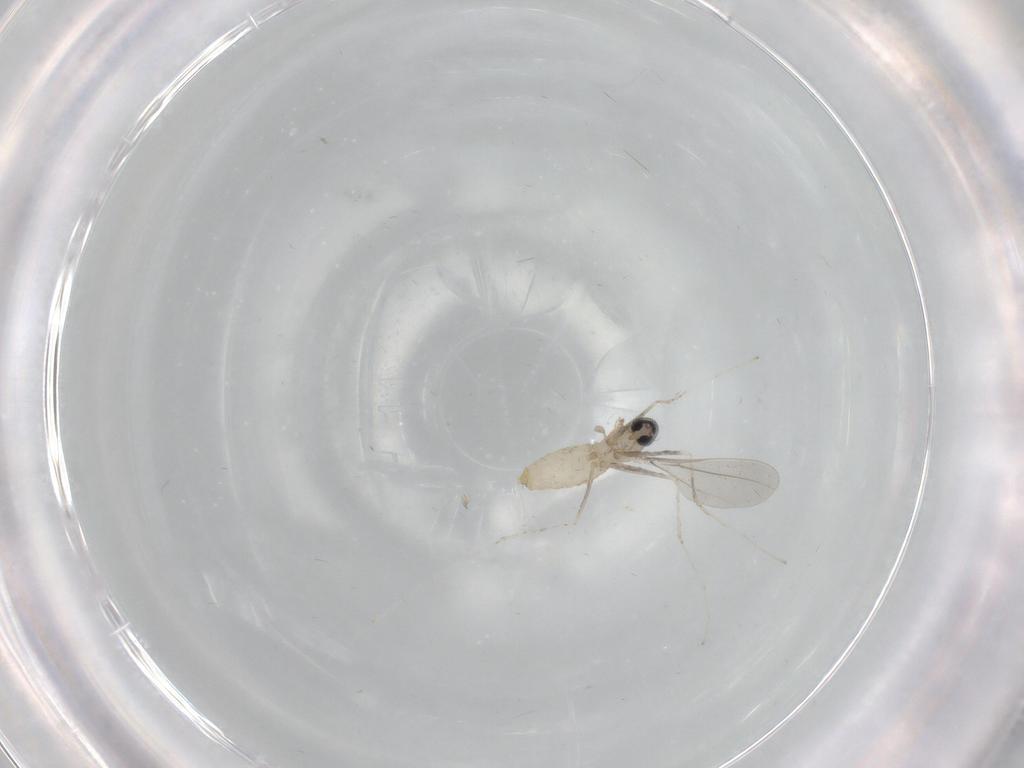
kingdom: Animalia
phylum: Arthropoda
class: Insecta
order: Diptera
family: Cecidomyiidae
